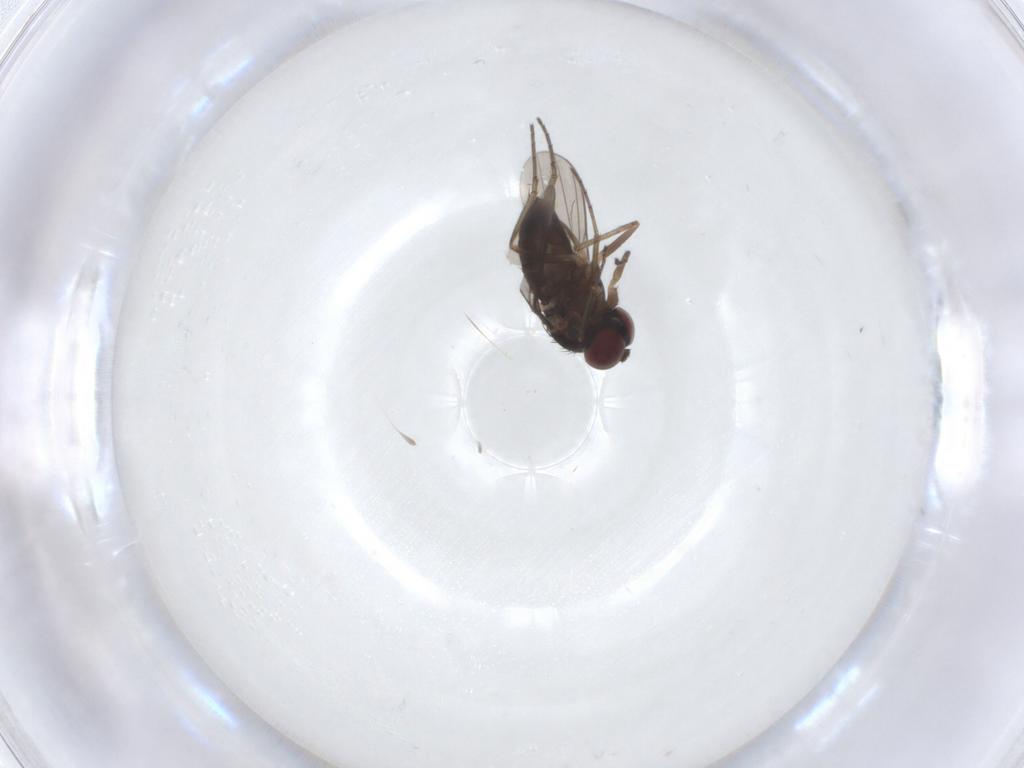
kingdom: Animalia
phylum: Arthropoda
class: Insecta
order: Diptera
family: Dolichopodidae
